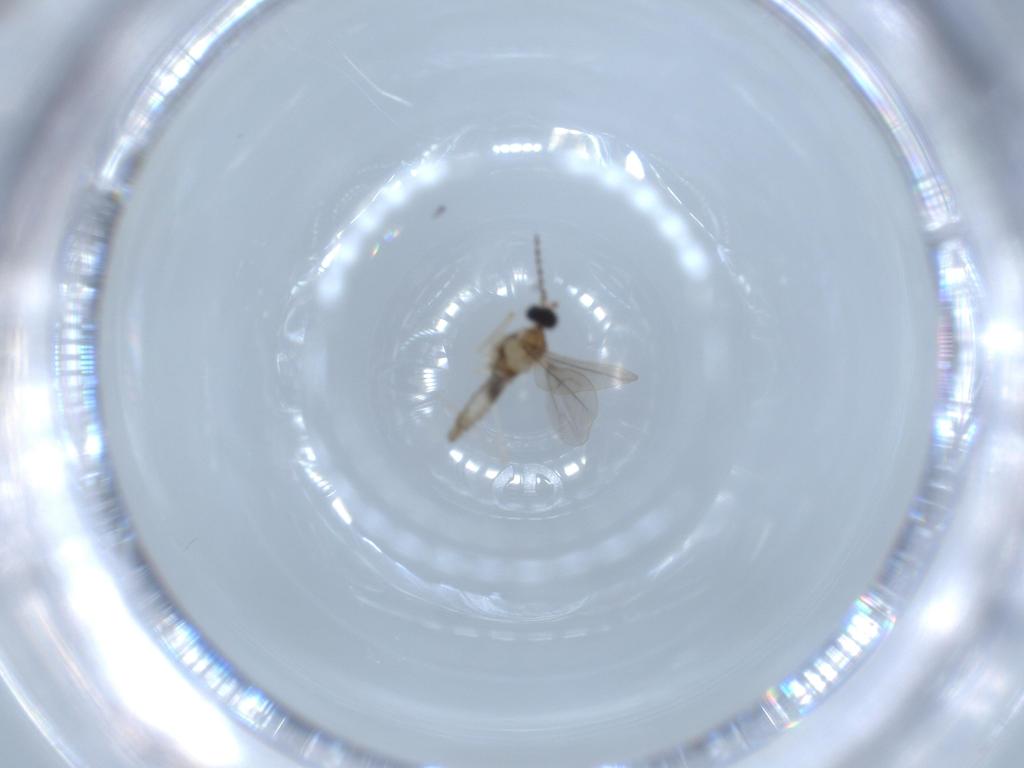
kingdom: Animalia
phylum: Arthropoda
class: Insecta
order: Diptera
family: Cecidomyiidae
